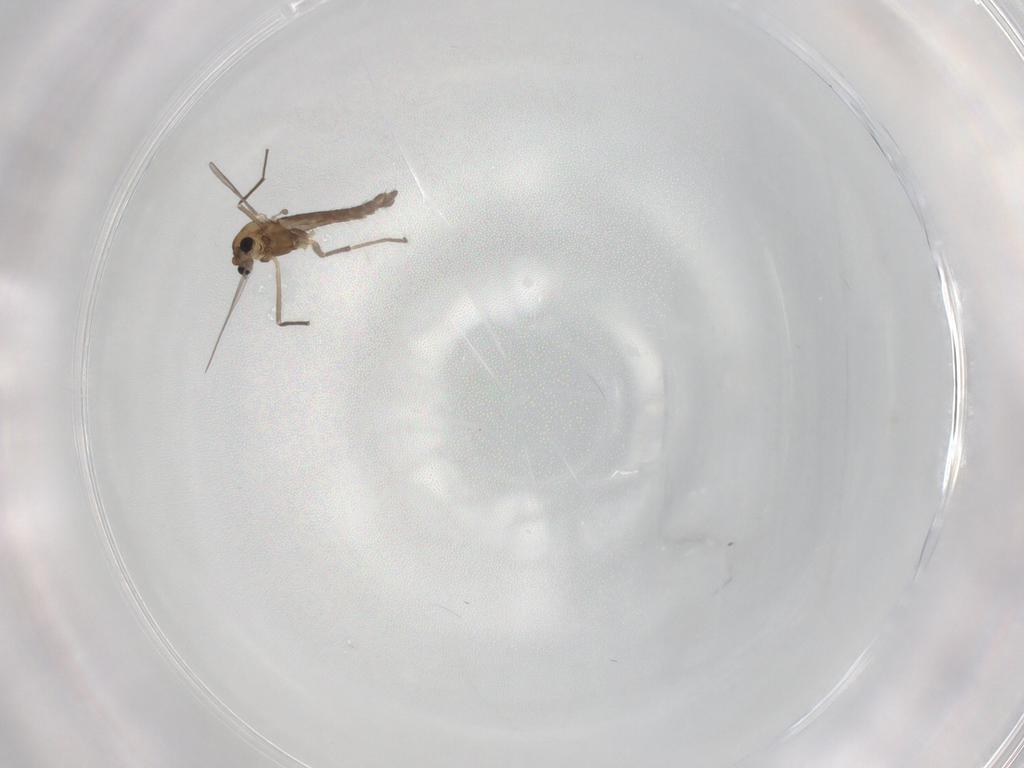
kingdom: Animalia
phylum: Arthropoda
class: Insecta
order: Diptera
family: Chironomidae
